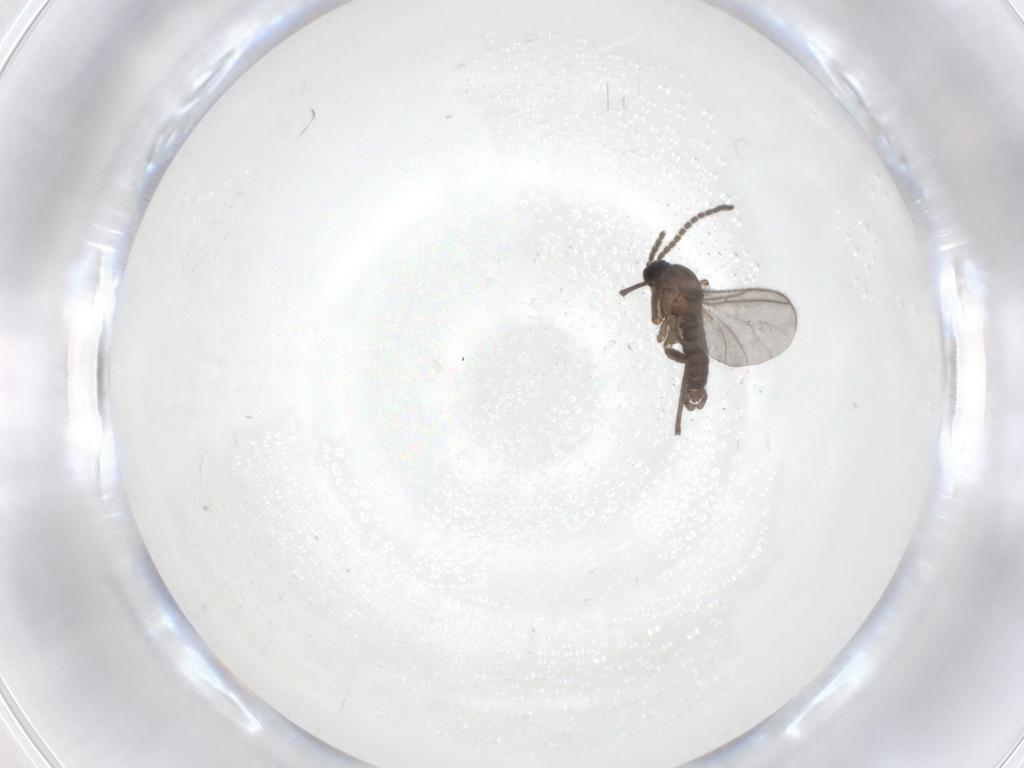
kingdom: Animalia
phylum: Arthropoda
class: Insecta
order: Diptera
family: Sciaridae
